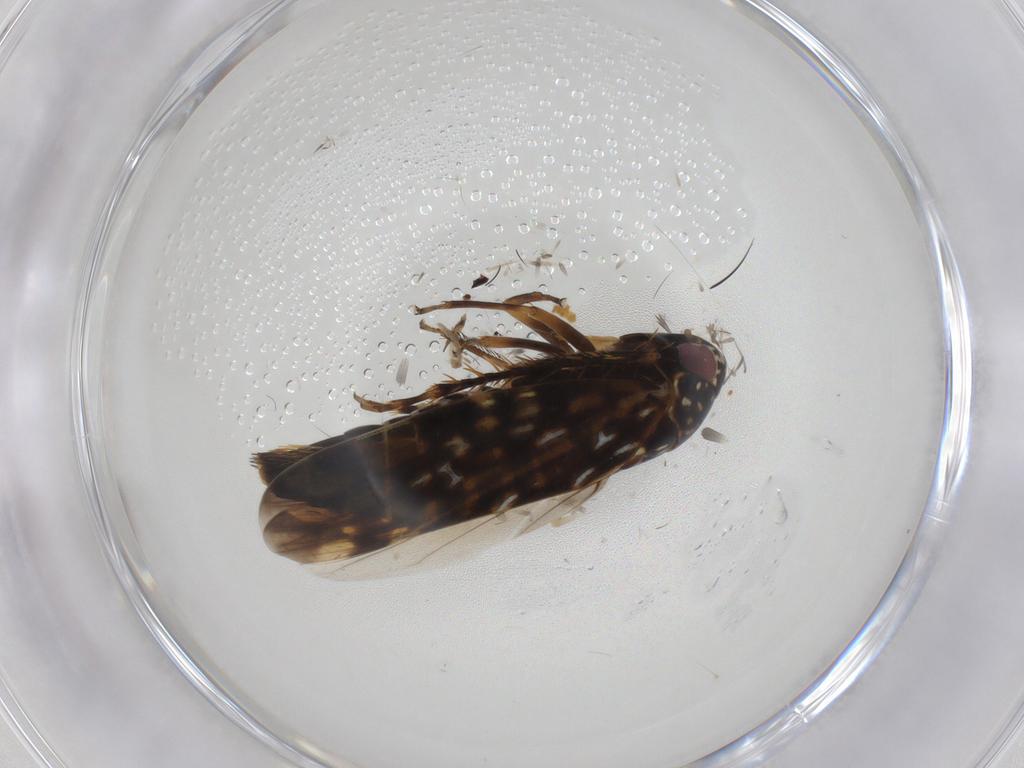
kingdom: Animalia
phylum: Arthropoda
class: Insecta
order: Hemiptera
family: Cicadellidae
